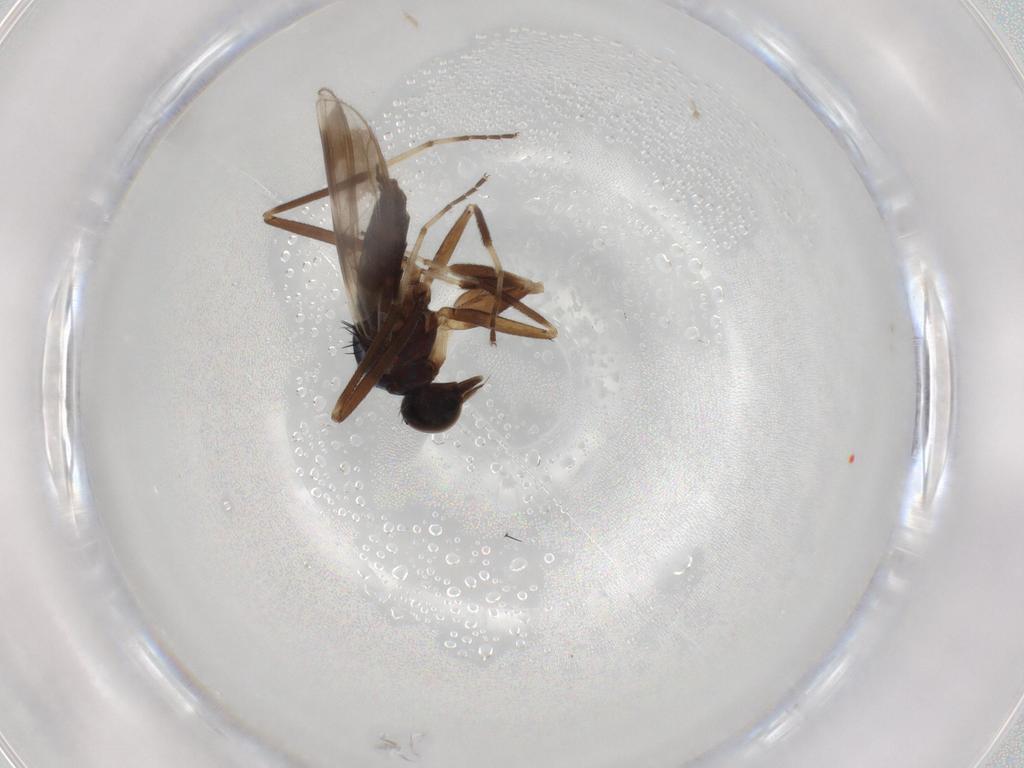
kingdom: Animalia
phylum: Arthropoda
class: Insecta
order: Diptera
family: Hybotidae
